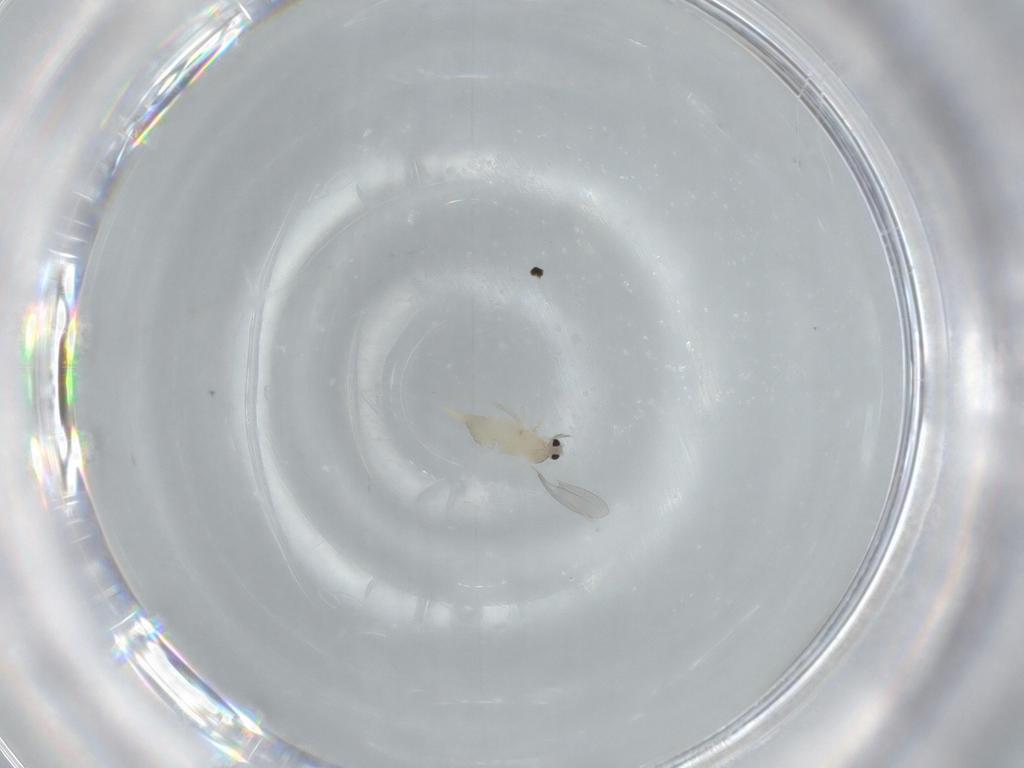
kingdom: Animalia
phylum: Arthropoda
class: Insecta
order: Diptera
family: Cecidomyiidae
